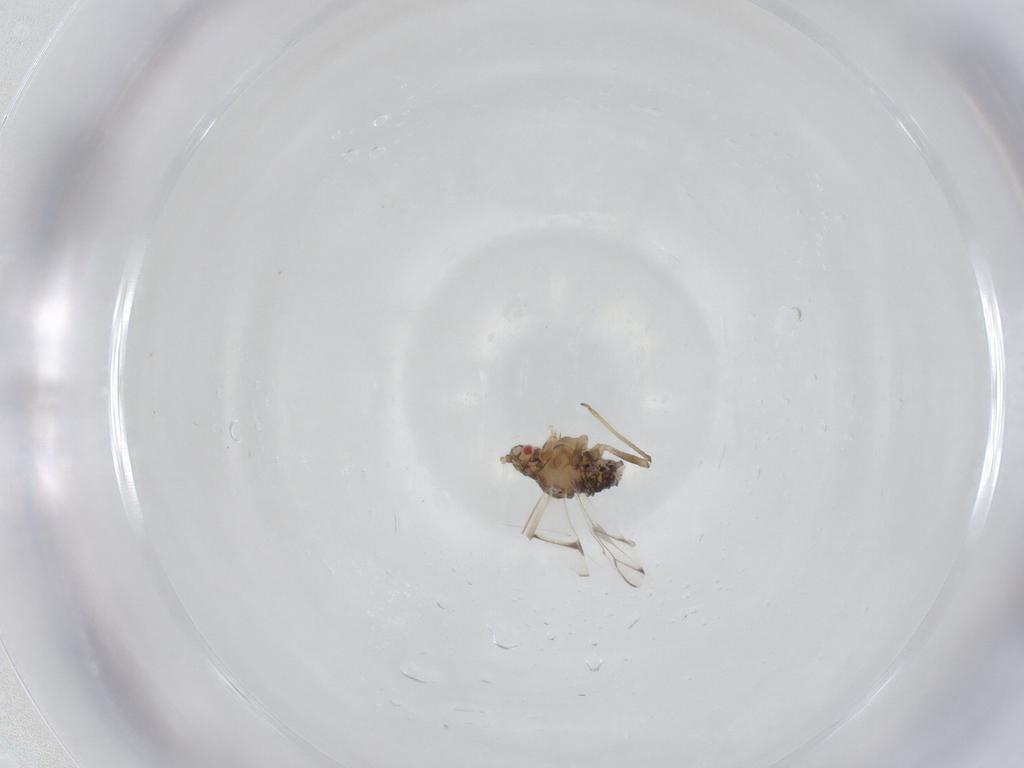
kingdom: Animalia
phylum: Arthropoda
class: Insecta
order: Hemiptera
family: Aphididae
